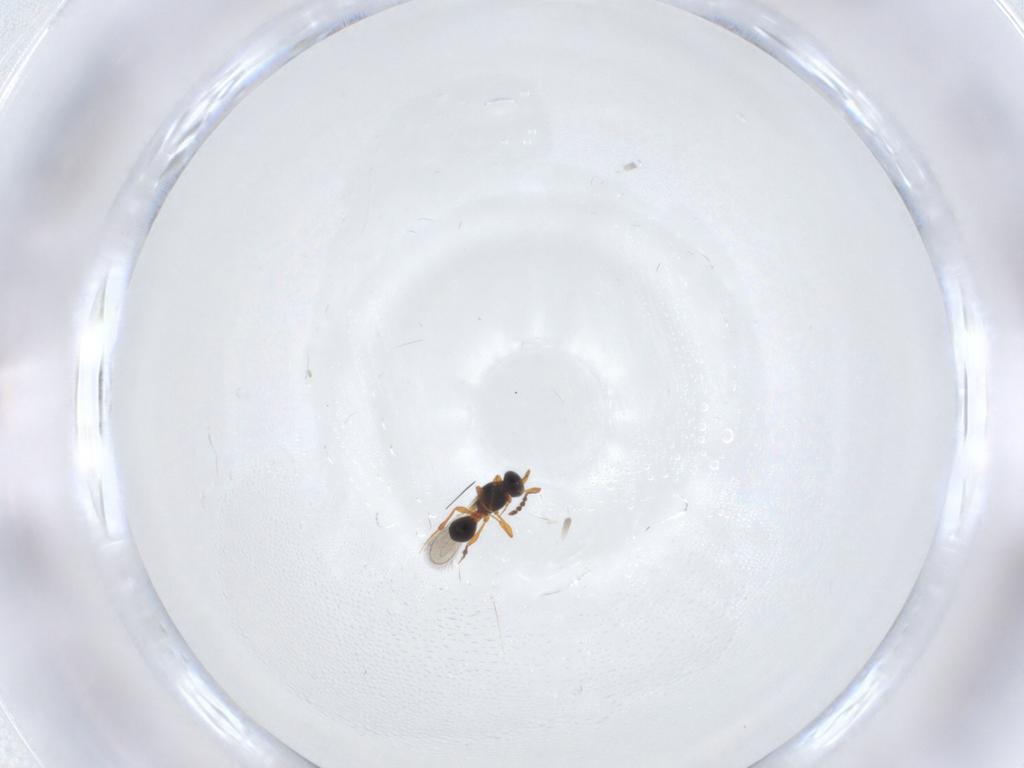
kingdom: Animalia
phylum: Arthropoda
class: Insecta
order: Hymenoptera
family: Platygastridae
